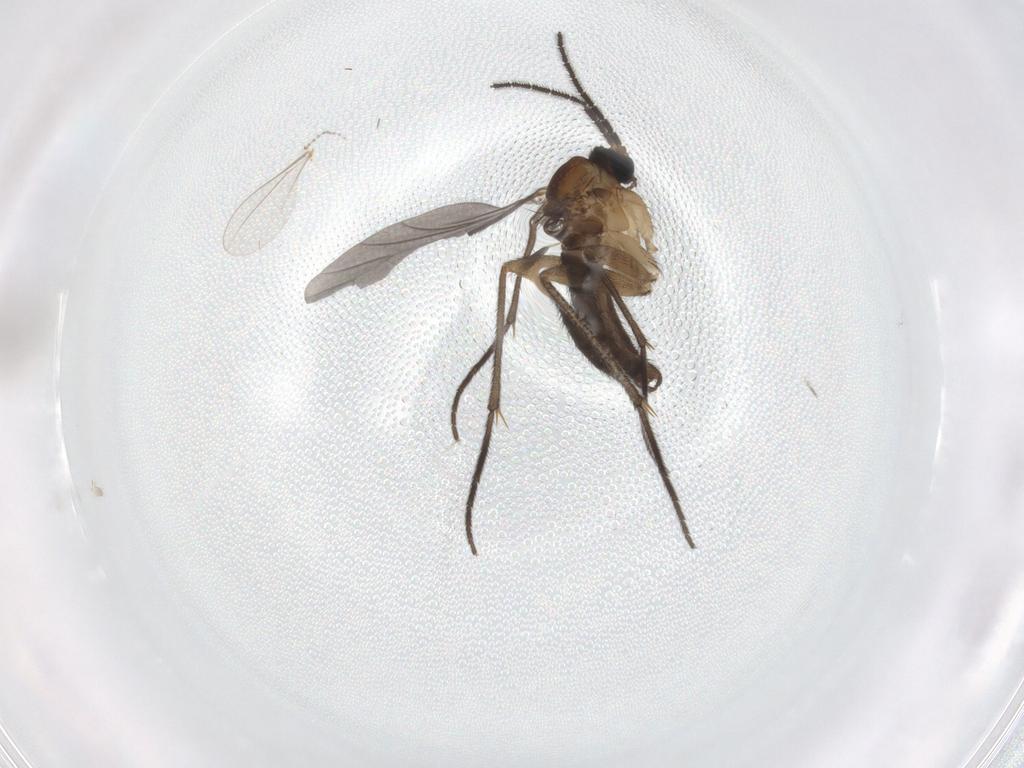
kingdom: Animalia
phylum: Arthropoda
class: Insecta
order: Diptera
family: Sciaridae
